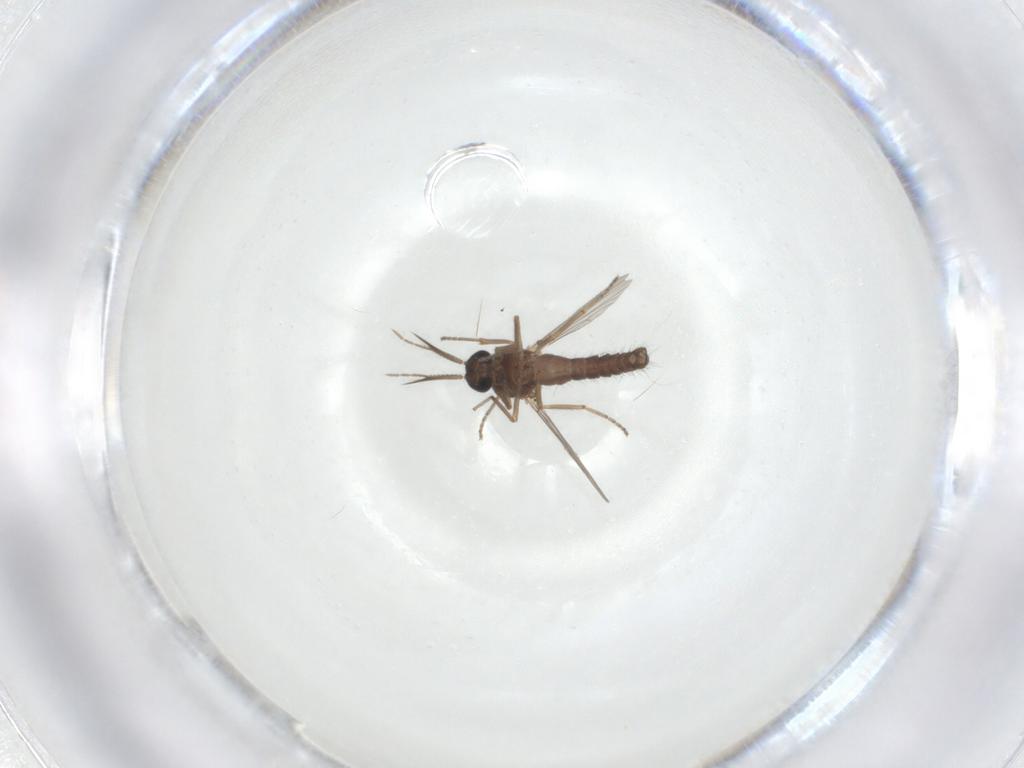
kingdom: Animalia
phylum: Arthropoda
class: Insecta
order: Diptera
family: Ceratopogonidae
